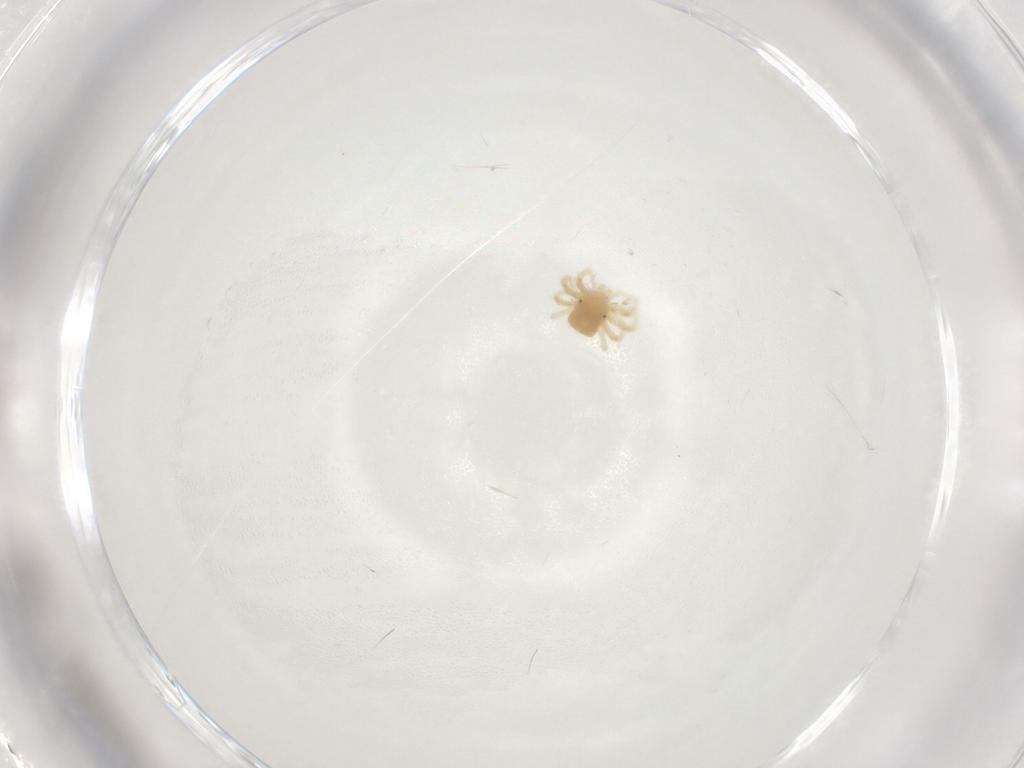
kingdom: Animalia
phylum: Arthropoda
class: Arachnida
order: Trombidiformes
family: Anystidae
